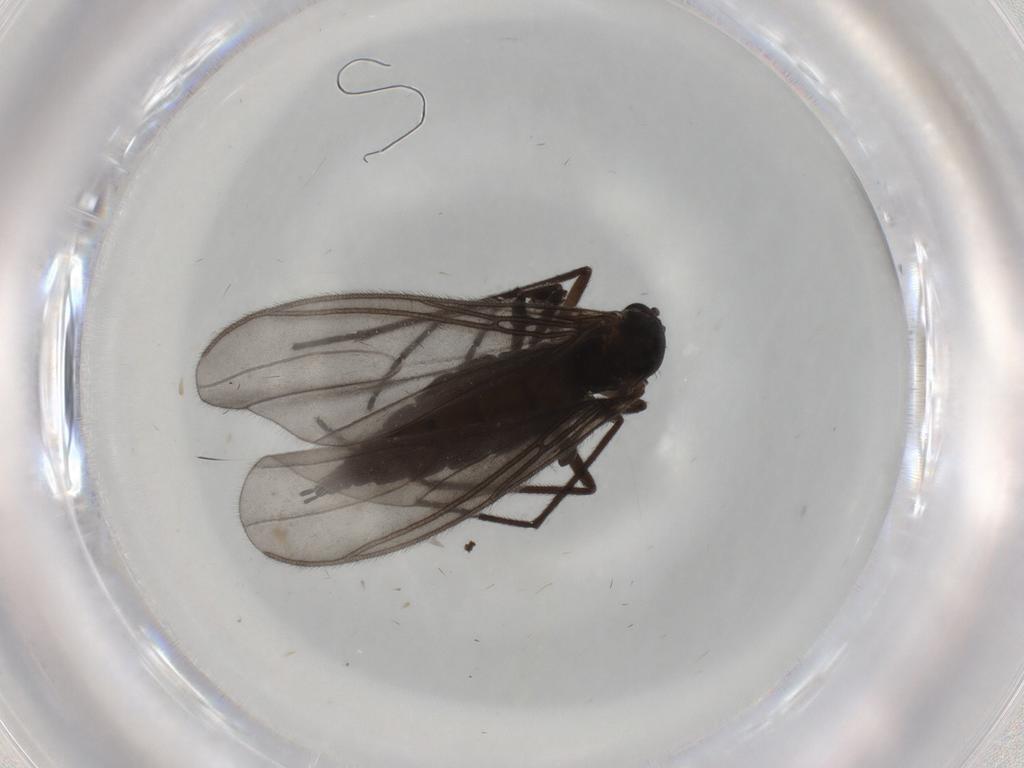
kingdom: Animalia
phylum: Arthropoda
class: Insecta
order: Diptera
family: Sciaridae
